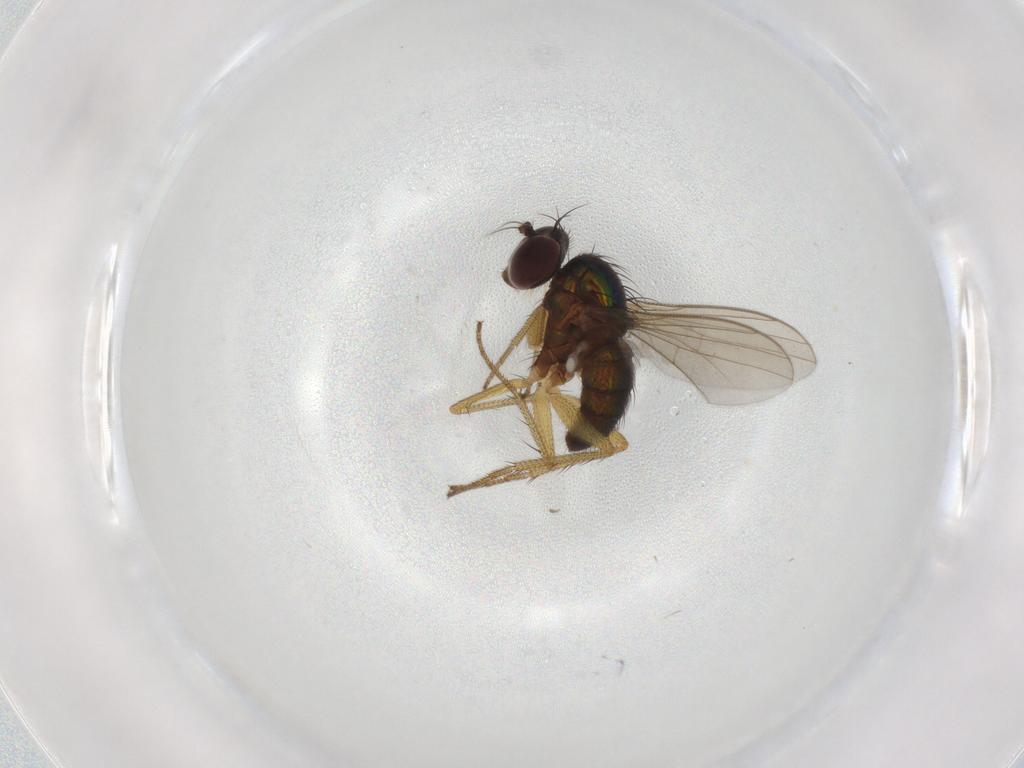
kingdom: Animalia
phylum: Arthropoda
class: Insecta
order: Diptera
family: Dolichopodidae
